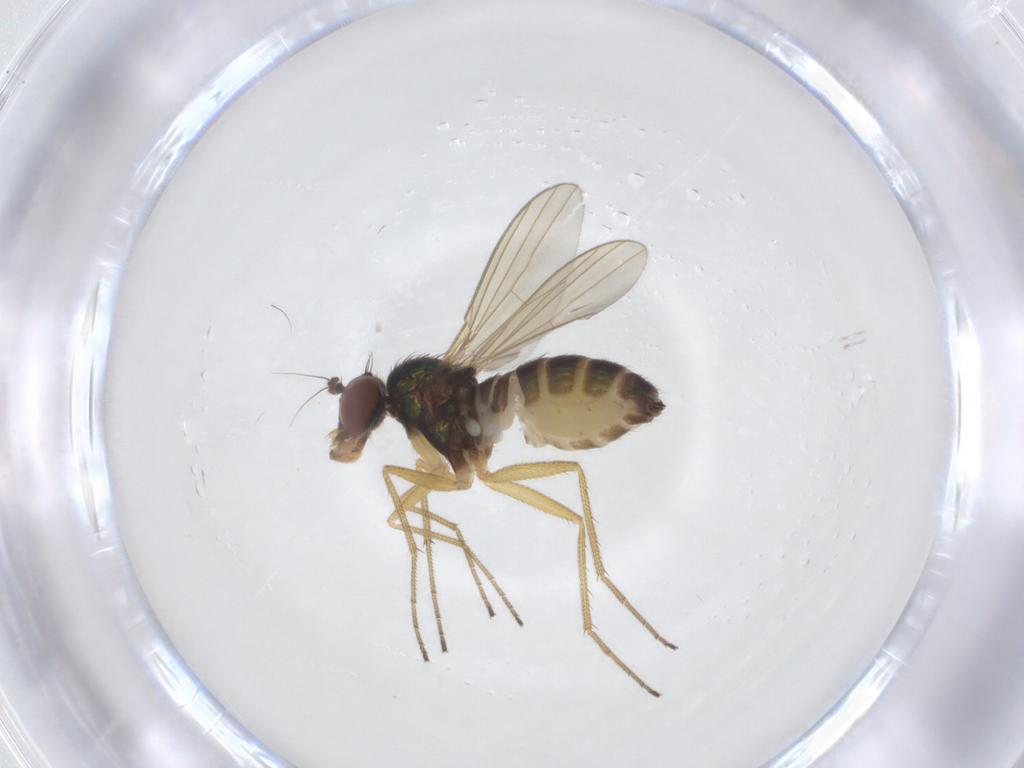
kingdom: Animalia
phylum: Arthropoda
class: Insecta
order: Diptera
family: Dolichopodidae
